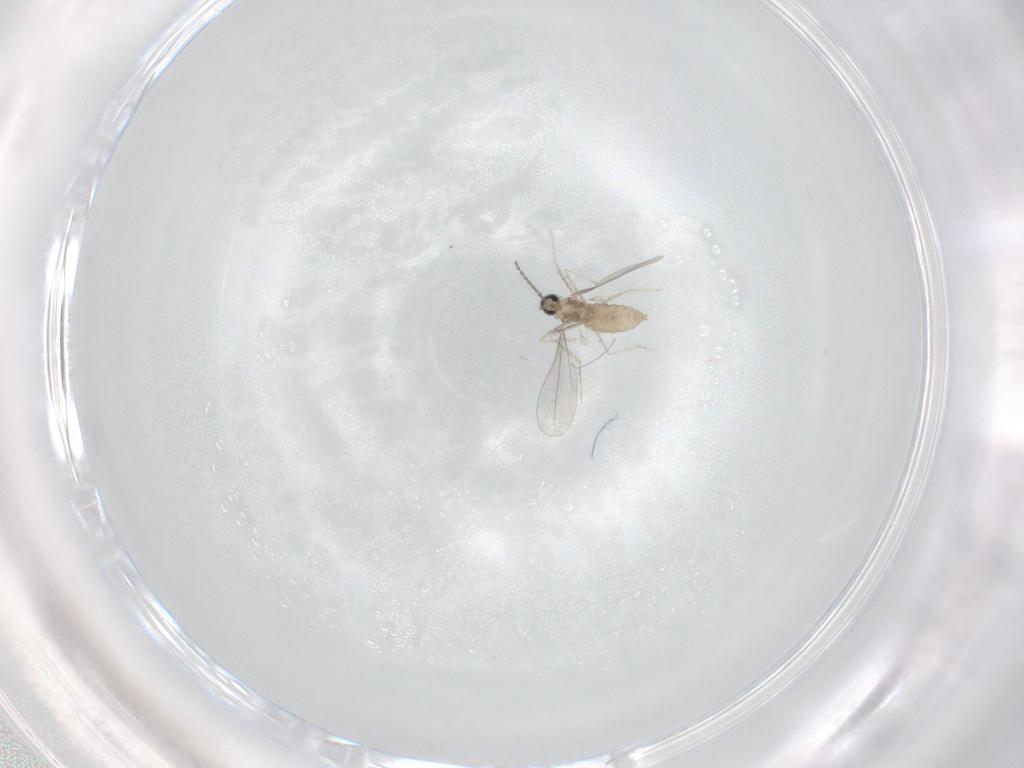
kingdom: Animalia
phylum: Arthropoda
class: Insecta
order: Diptera
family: Cecidomyiidae
